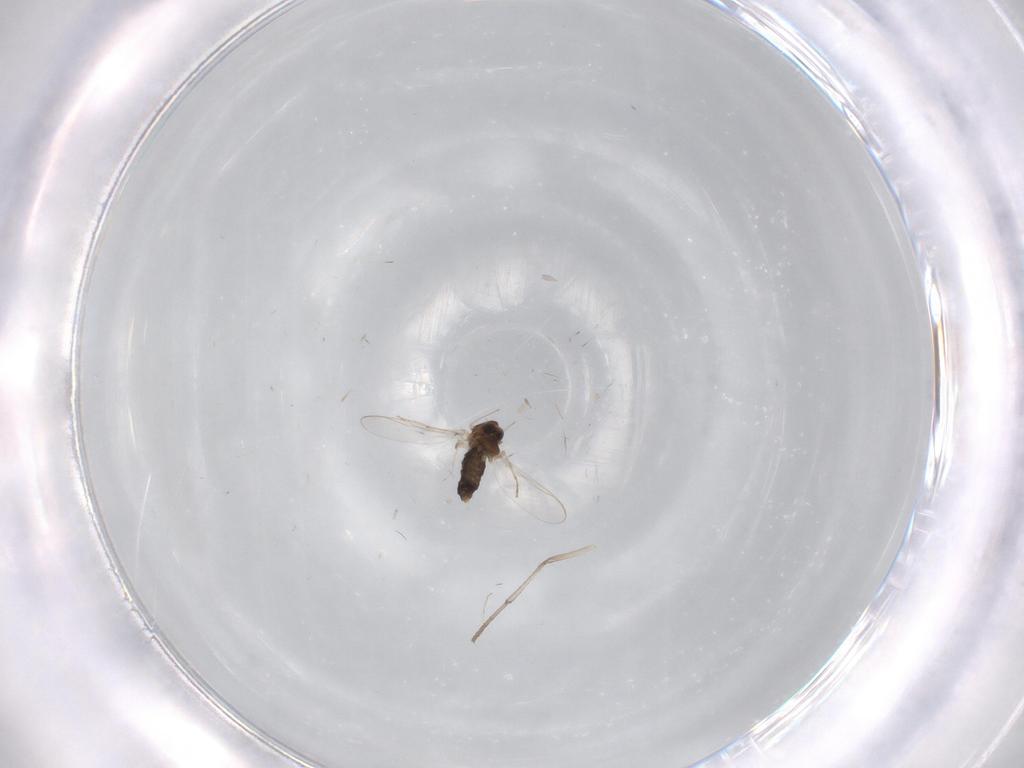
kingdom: Animalia
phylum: Arthropoda
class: Insecta
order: Diptera
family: Chironomidae
